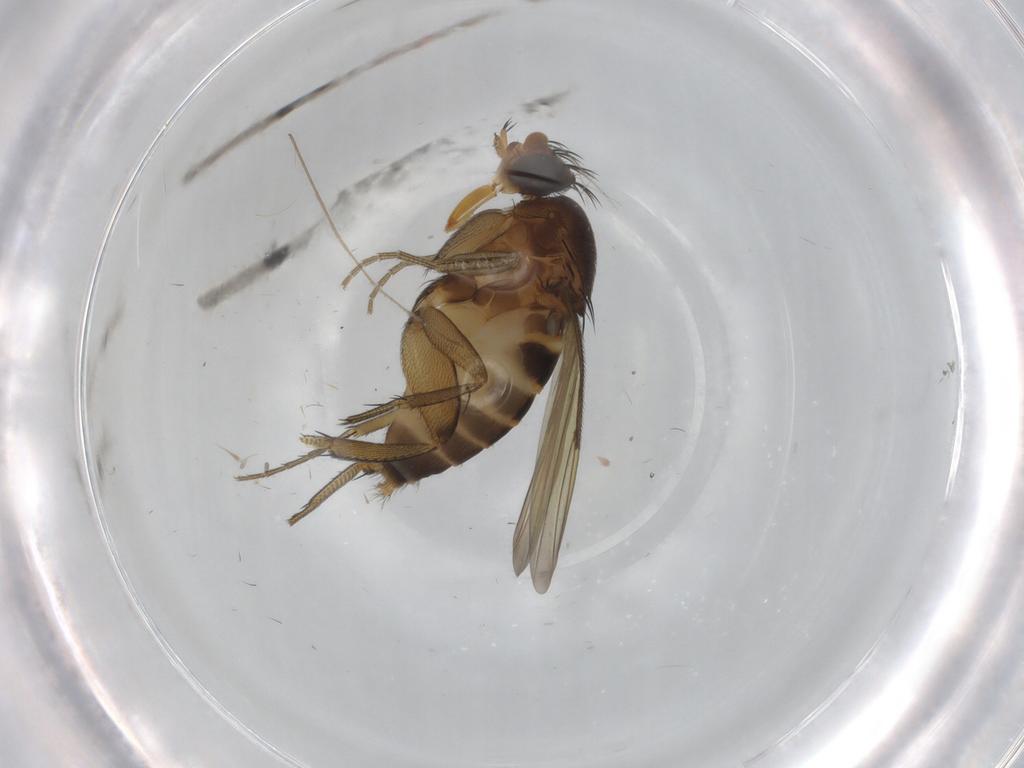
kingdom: Animalia
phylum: Arthropoda
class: Insecta
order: Diptera
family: Phoridae
